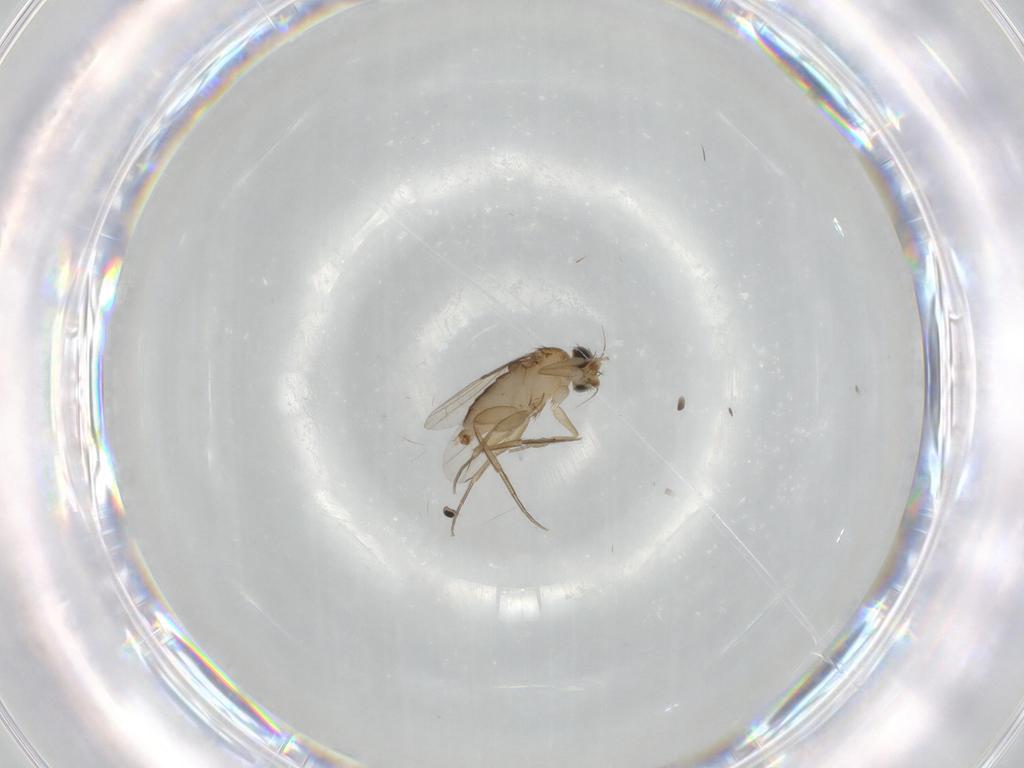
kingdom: Animalia
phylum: Arthropoda
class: Insecta
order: Diptera
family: Phoridae
